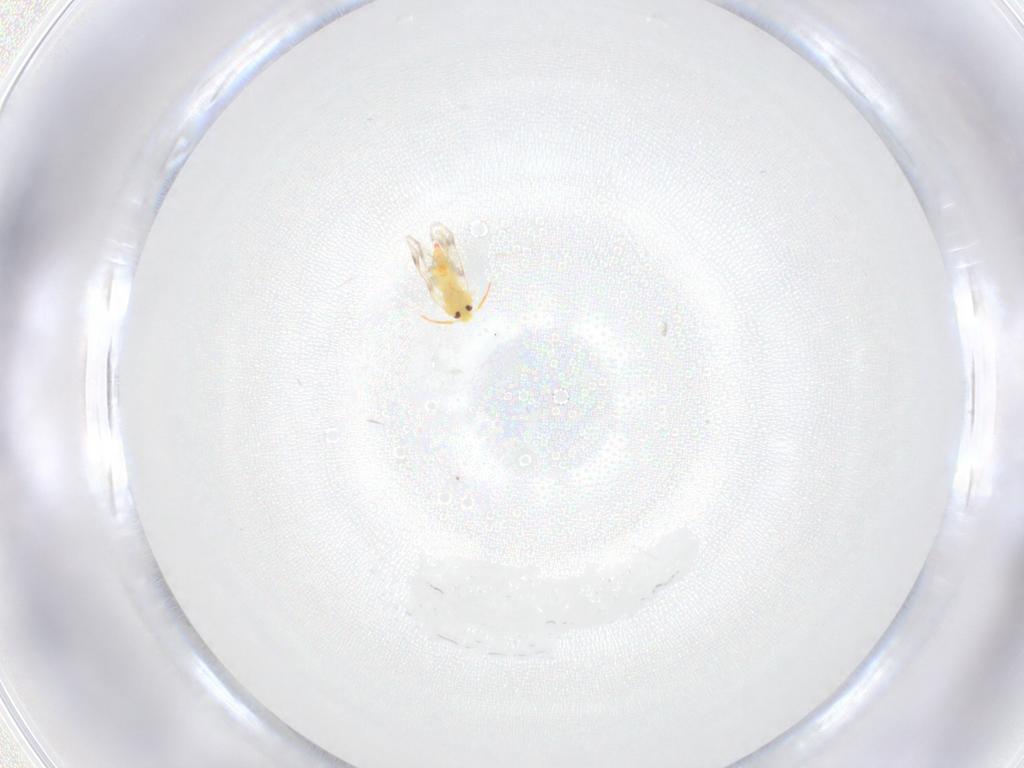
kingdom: Animalia
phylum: Arthropoda
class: Insecta
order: Hemiptera
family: Aleyrodidae
